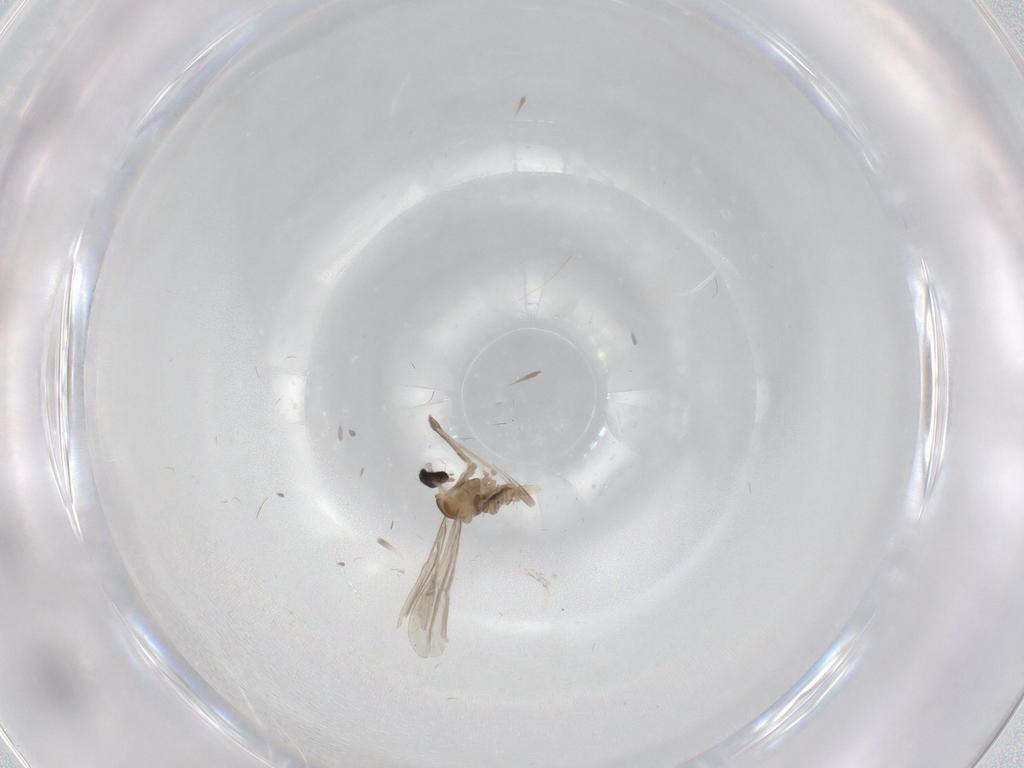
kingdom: Animalia
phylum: Arthropoda
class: Insecta
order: Diptera
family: Cecidomyiidae
